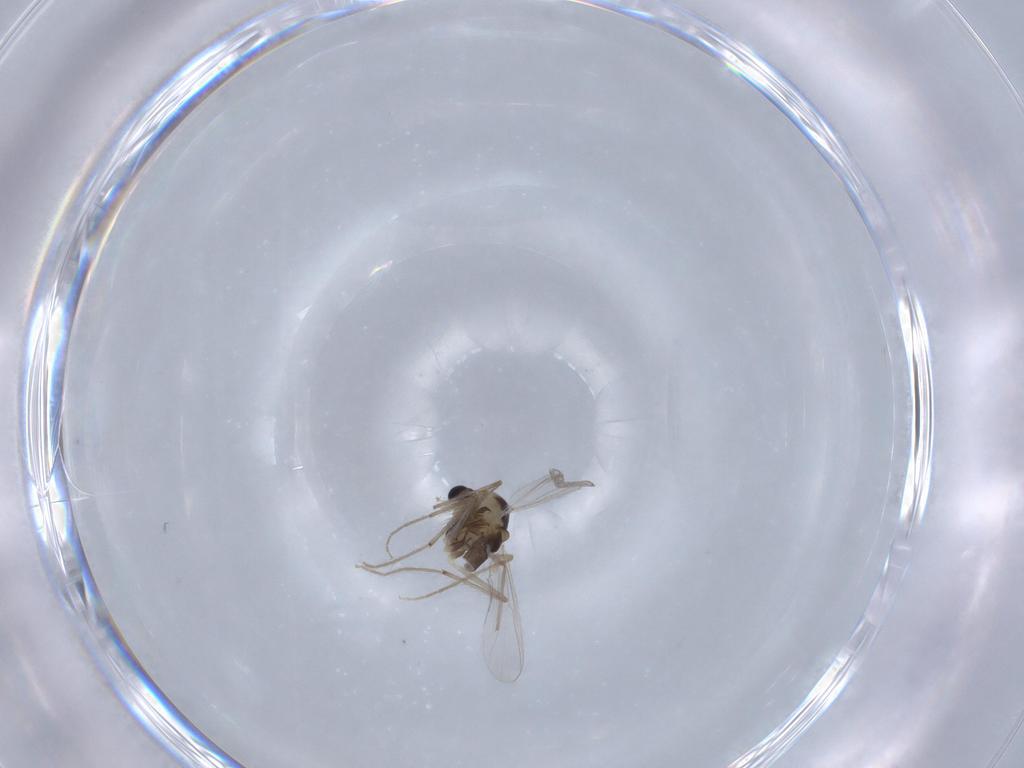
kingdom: Animalia
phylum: Arthropoda
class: Insecta
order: Diptera
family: Chironomidae
